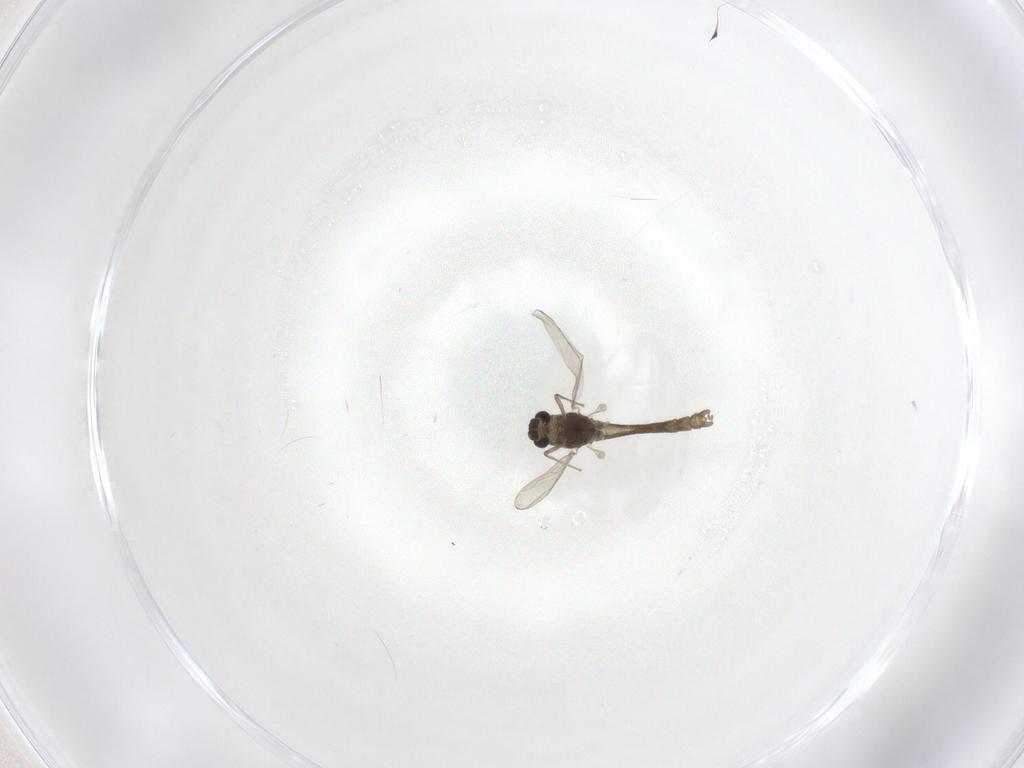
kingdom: Animalia
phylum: Arthropoda
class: Insecta
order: Diptera
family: Chironomidae
